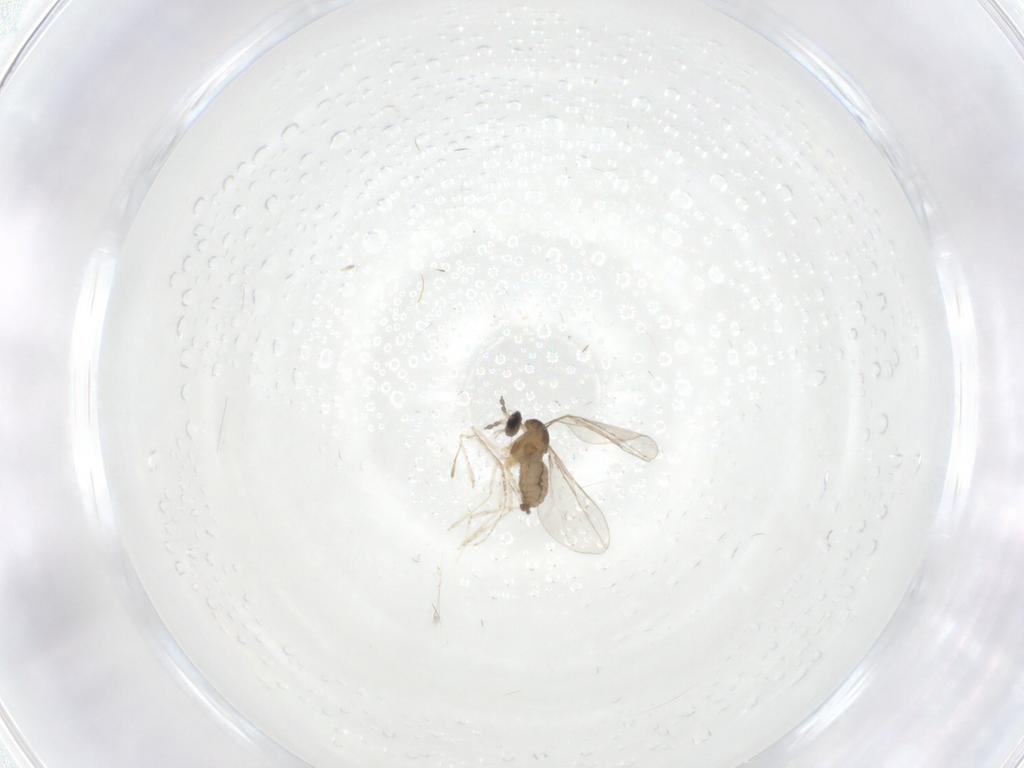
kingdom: Animalia
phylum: Arthropoda
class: Insecta
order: Diptera
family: Cecidomyiidae
